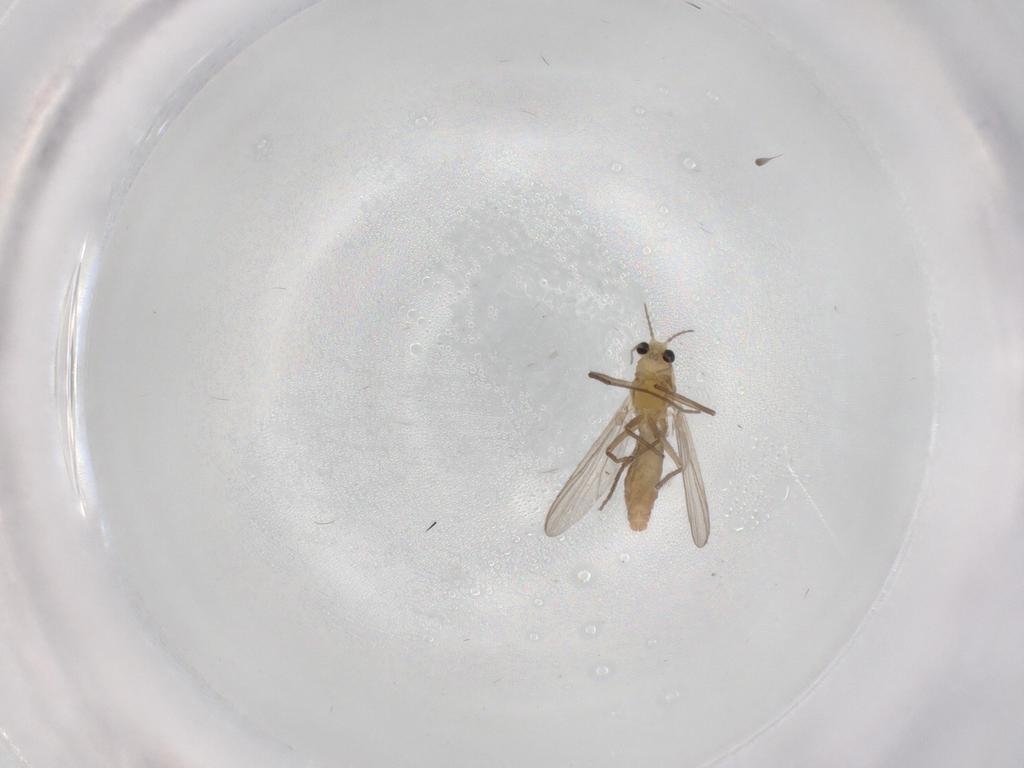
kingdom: Animalia
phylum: Arthropoda
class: Insecta
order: Diptera
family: Chironomidae
